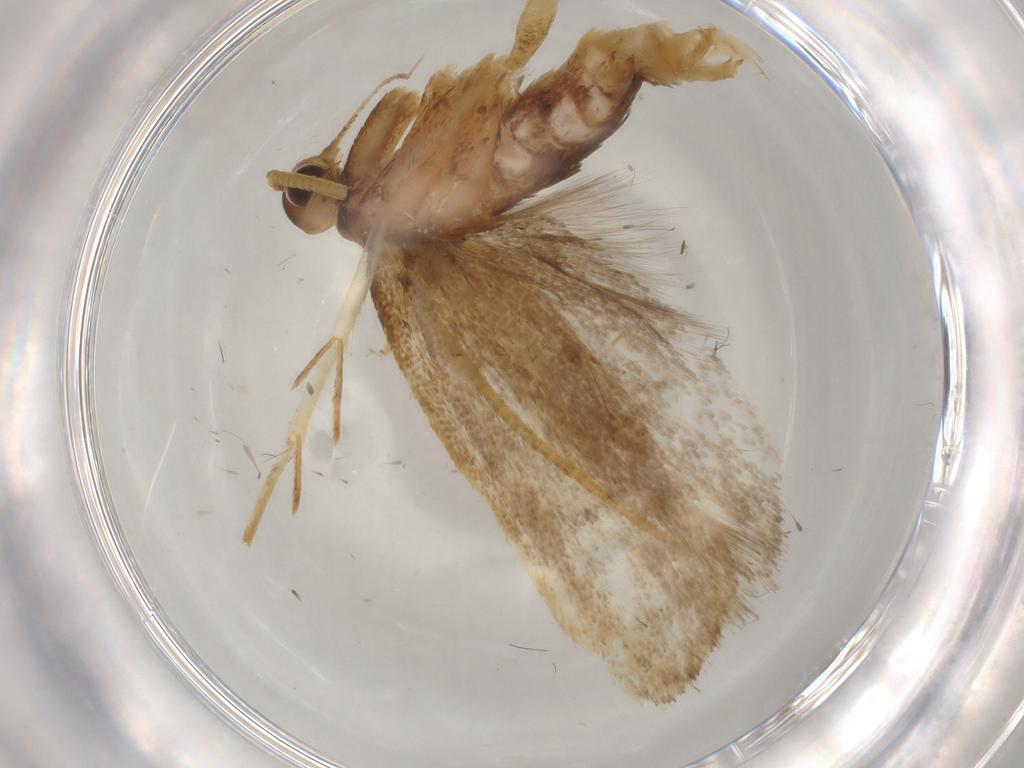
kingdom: Animalia
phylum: Arthropoda
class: Insecta
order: Lepidoptera
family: Lecithoceridae
